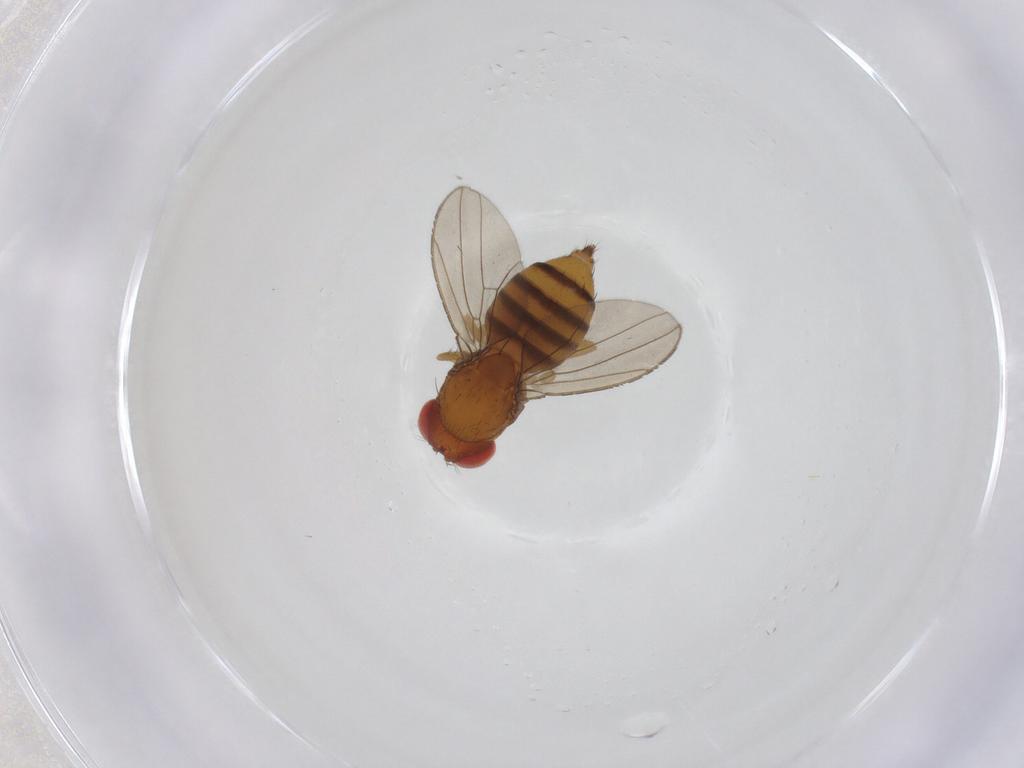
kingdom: Animalia
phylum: Arthropoda
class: Insecta
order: Diptera
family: Drosophilidae
